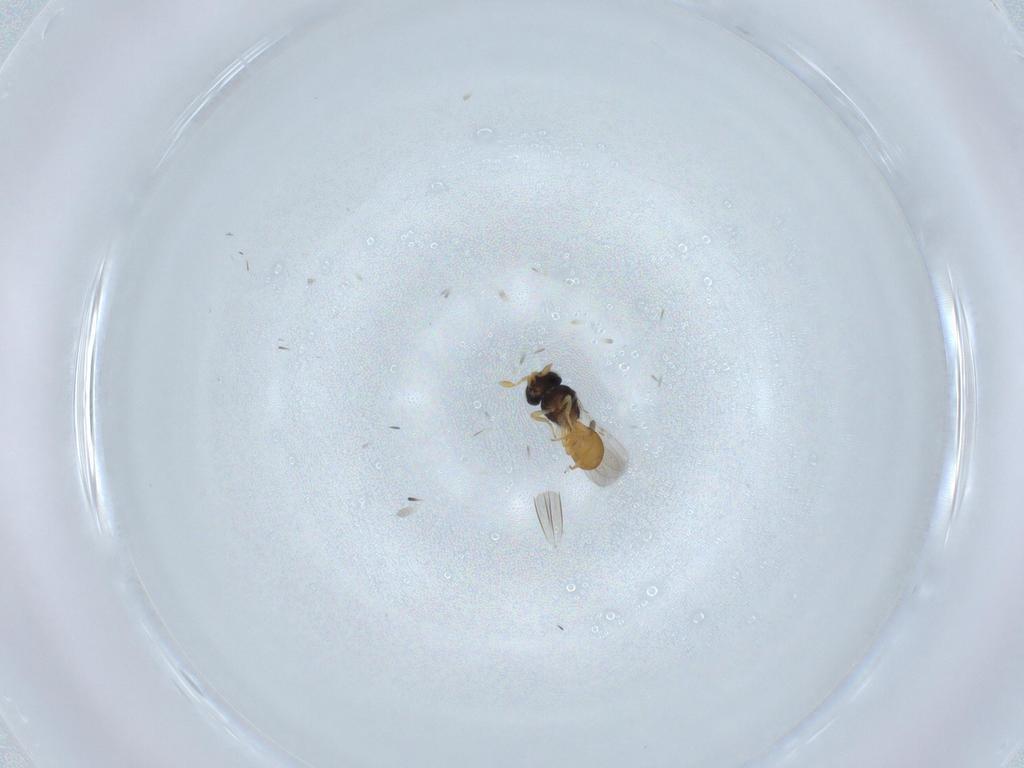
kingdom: Animalia
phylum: Arthropoda
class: Insecta
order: Hymenoptera
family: Scelionidae
